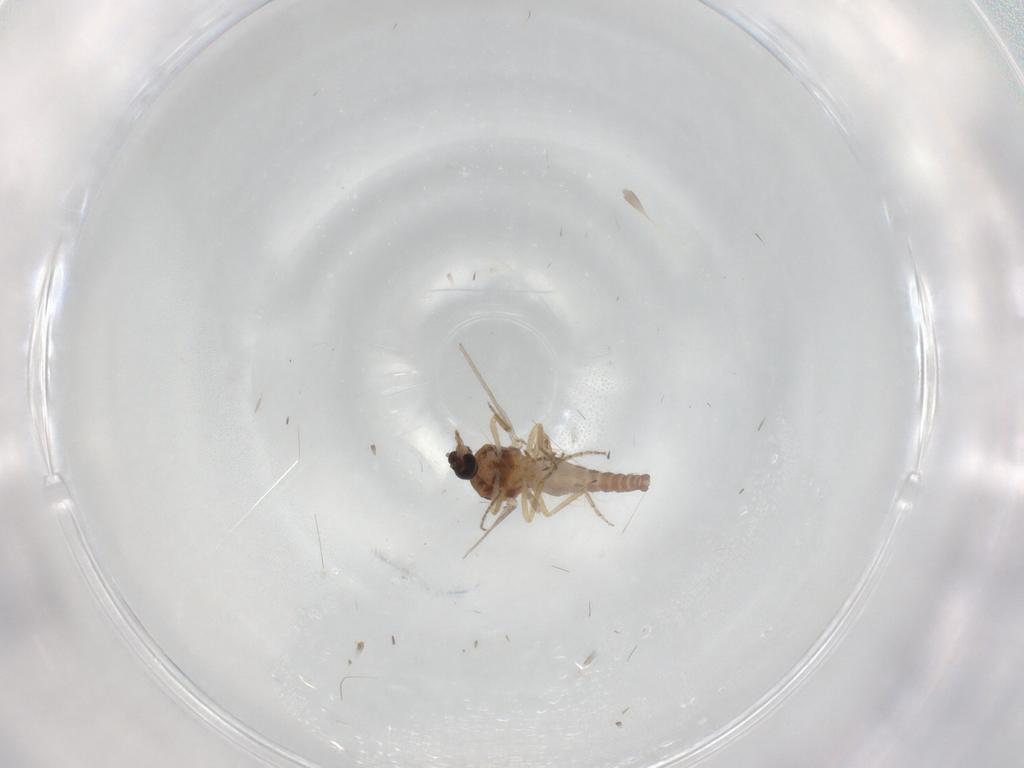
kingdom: Animalia
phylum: Arthropoda
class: Insecta
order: Diptera
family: Ceratopogonidae
